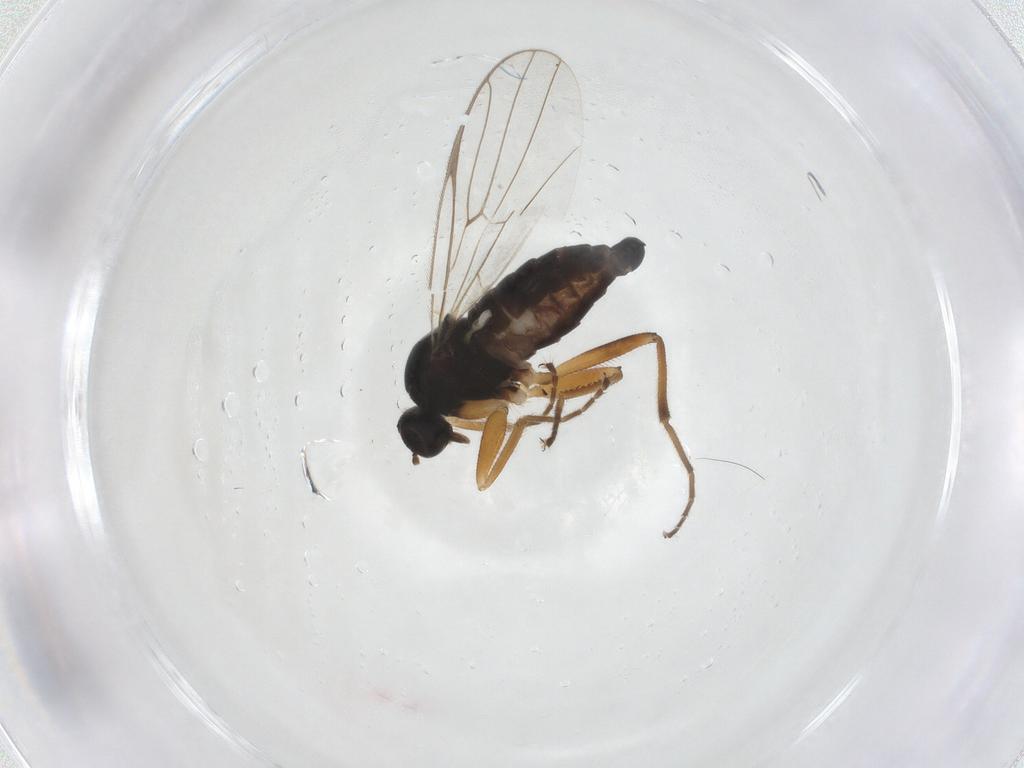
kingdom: Animalia
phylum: Arthropoda
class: Insecta
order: Diptera
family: Hybotidae
